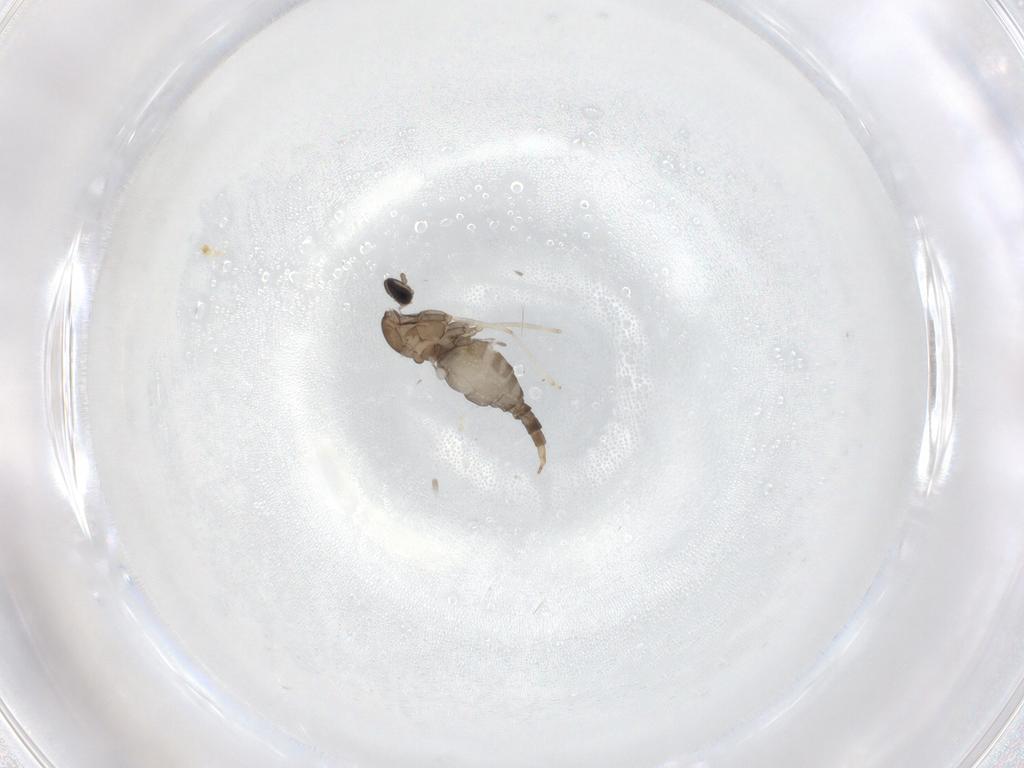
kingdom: Animalia
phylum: Arthropoda
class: Insecta
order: Diptera
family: Cecidomyiidae
